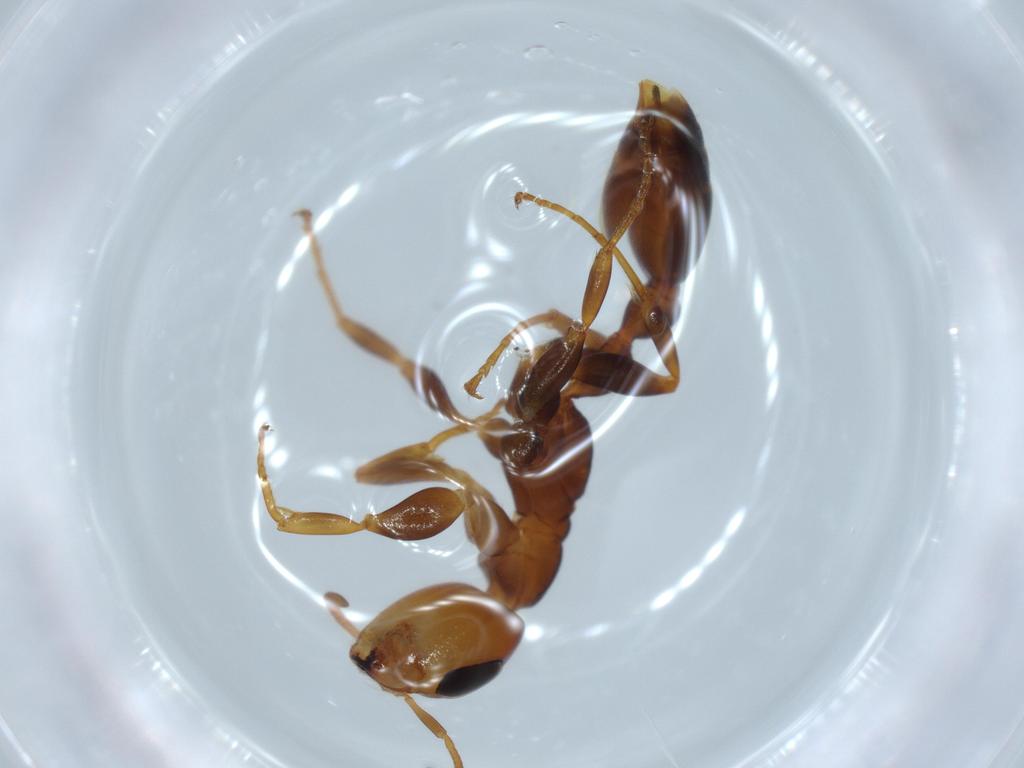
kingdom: Animalia
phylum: Arthropoda
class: Insecta
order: Hymenoptera
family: Formicidae
